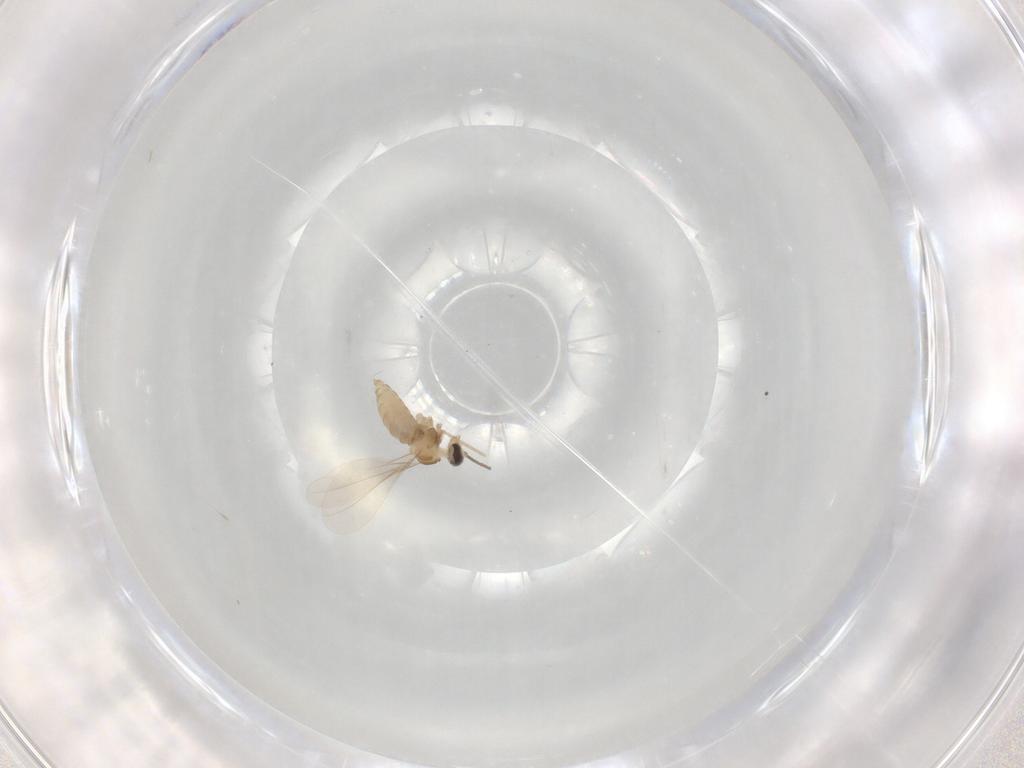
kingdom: Animalia
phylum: Arthropoda
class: Insecta
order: Diptera
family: Cecidomyiidae
